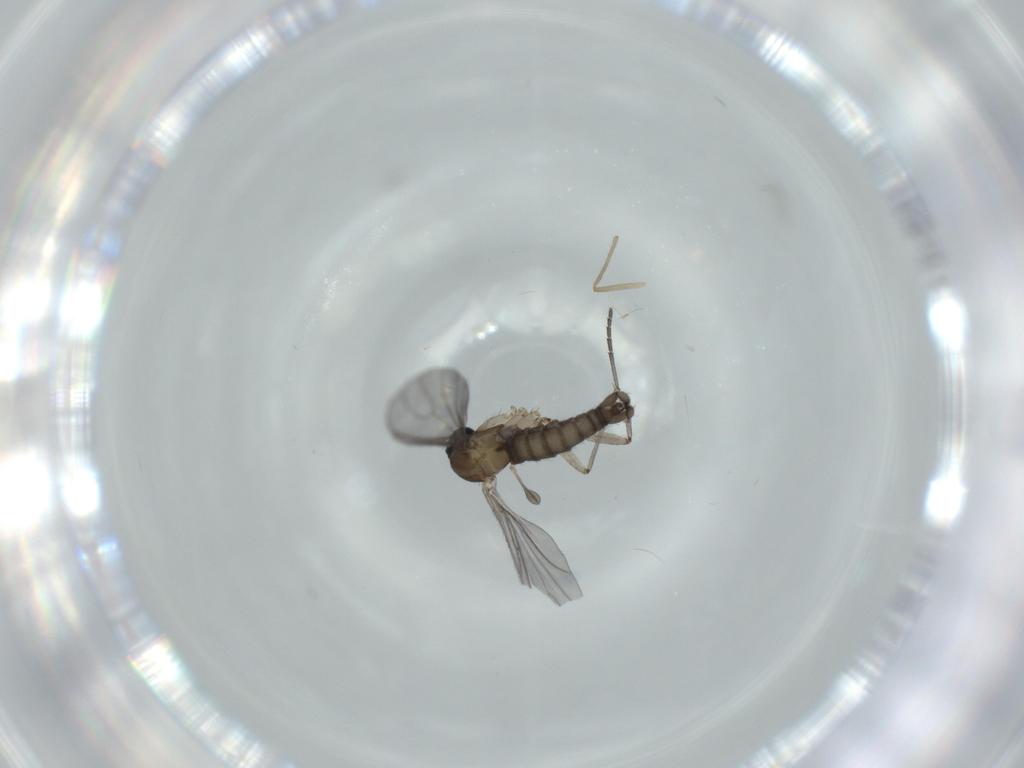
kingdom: Animalia
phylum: Arthropoda
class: Insecta
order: Diptera
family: Sciaridae
